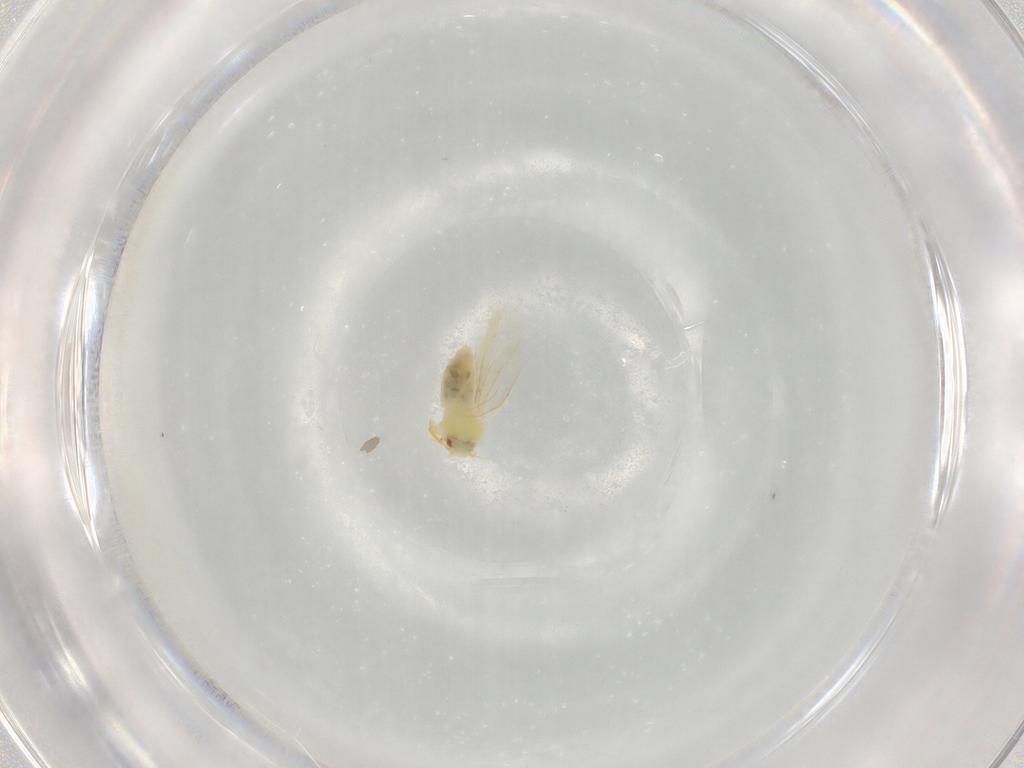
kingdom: Animalia
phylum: Arthropoda
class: Insecta
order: Hemiptera
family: Aleyrodidae
